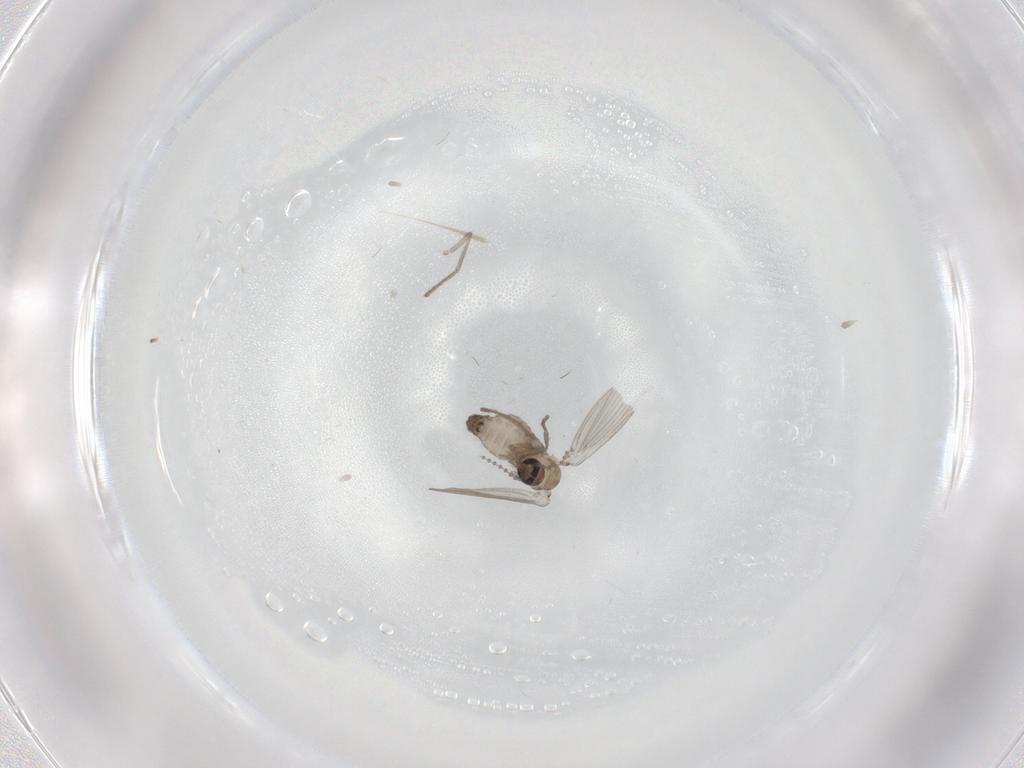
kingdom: Animalia
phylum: Arthropoda
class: Insecta
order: Diptera
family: Psychodidae
